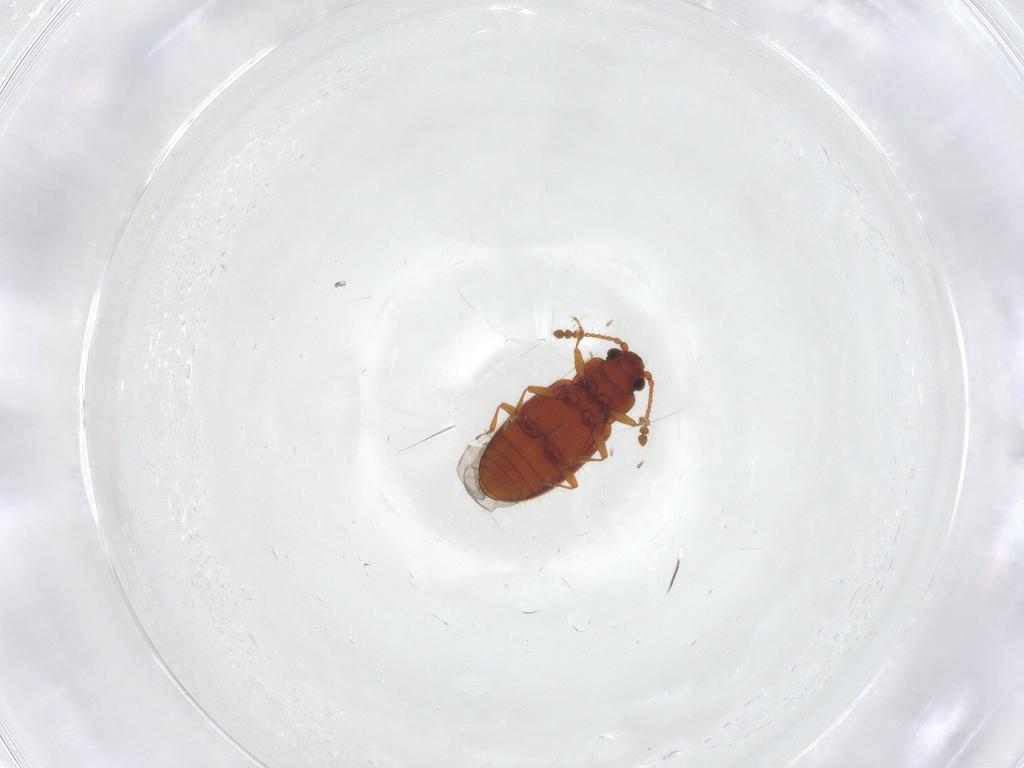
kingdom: Animalia
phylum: Arthropoda
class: Insecta
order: Coleoptera
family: Cryptophagidae
